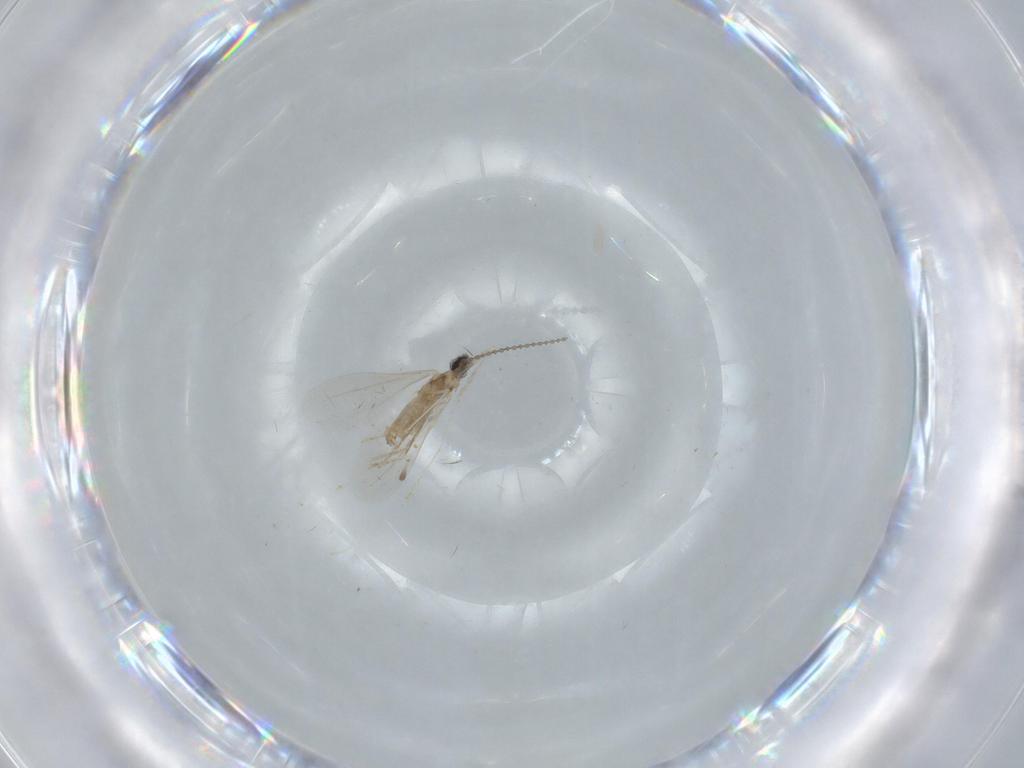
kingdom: Animalia
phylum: Arthropoda
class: Insecta
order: Diptera
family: Cecidomyiidae
